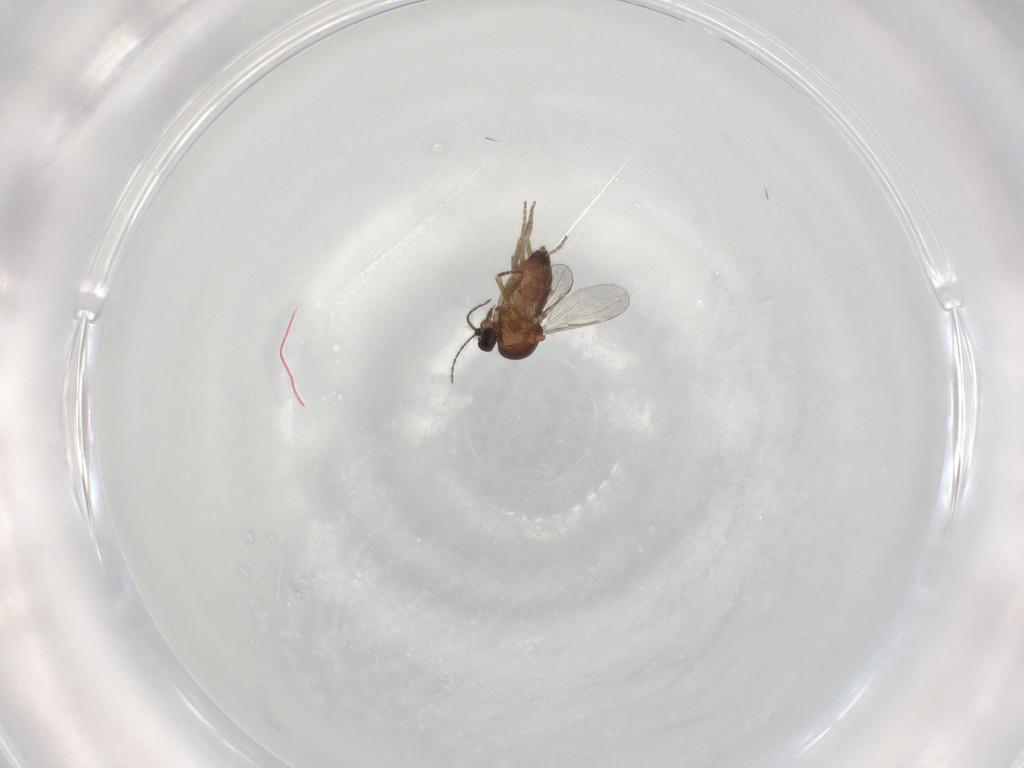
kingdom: Animalia
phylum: Arthropoda
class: Insecta
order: Diptera
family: Ceratopogonidae
